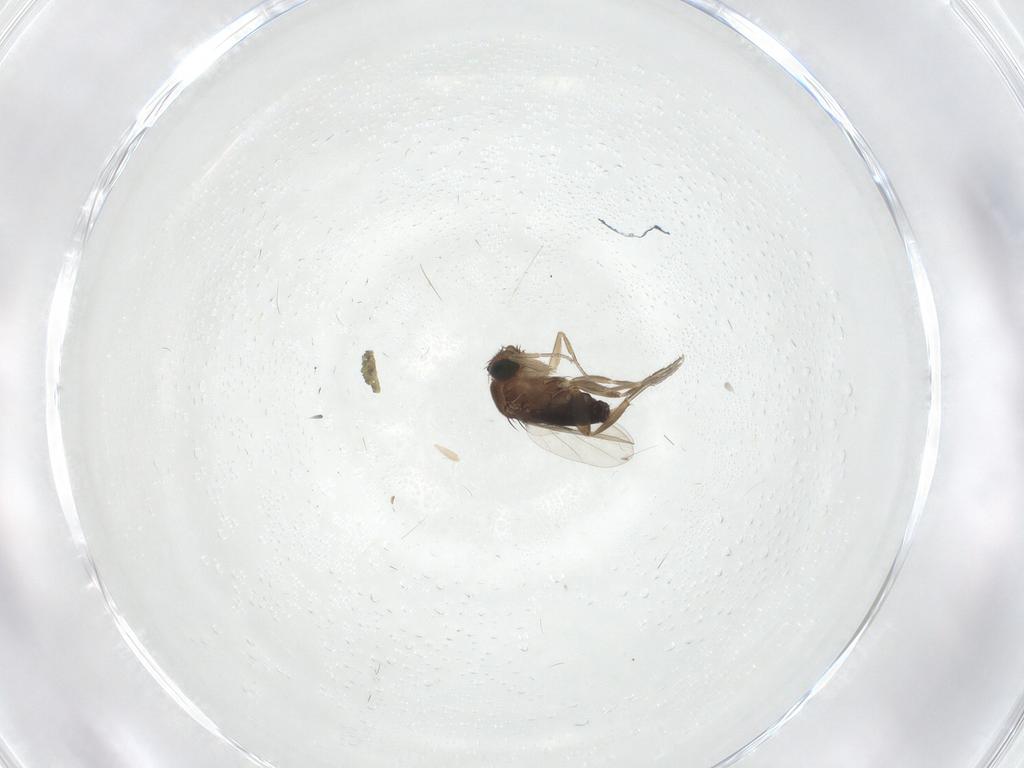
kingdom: Animalia
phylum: Arthropoda
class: Insecta
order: Diptera
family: Phoridae
